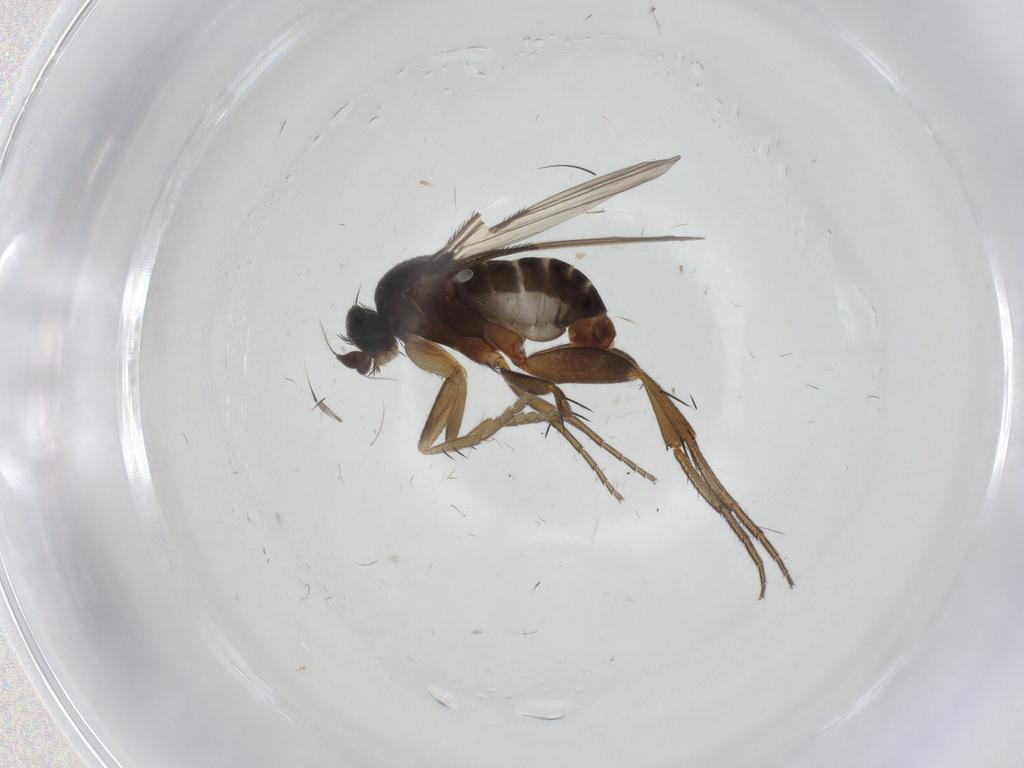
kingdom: Animalia
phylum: Arthropoda
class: Insecta
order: Diptera
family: Phoridae
